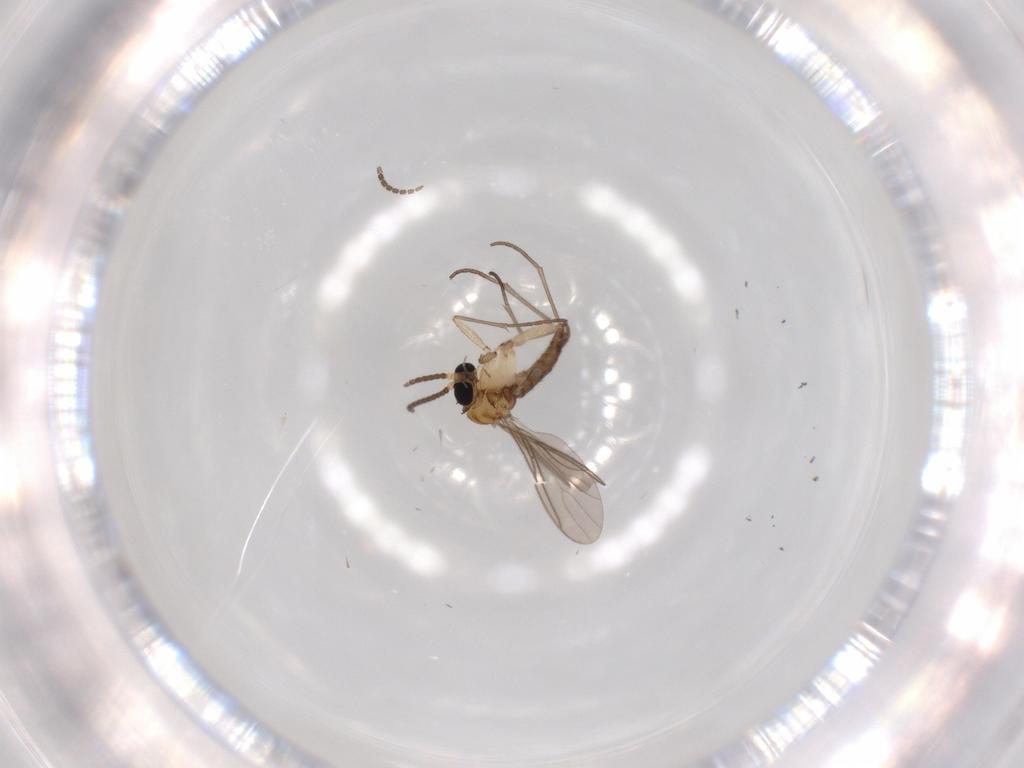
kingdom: Animalia
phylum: Arthropoda
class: Insecta
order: Diptera
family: Sciaridae
